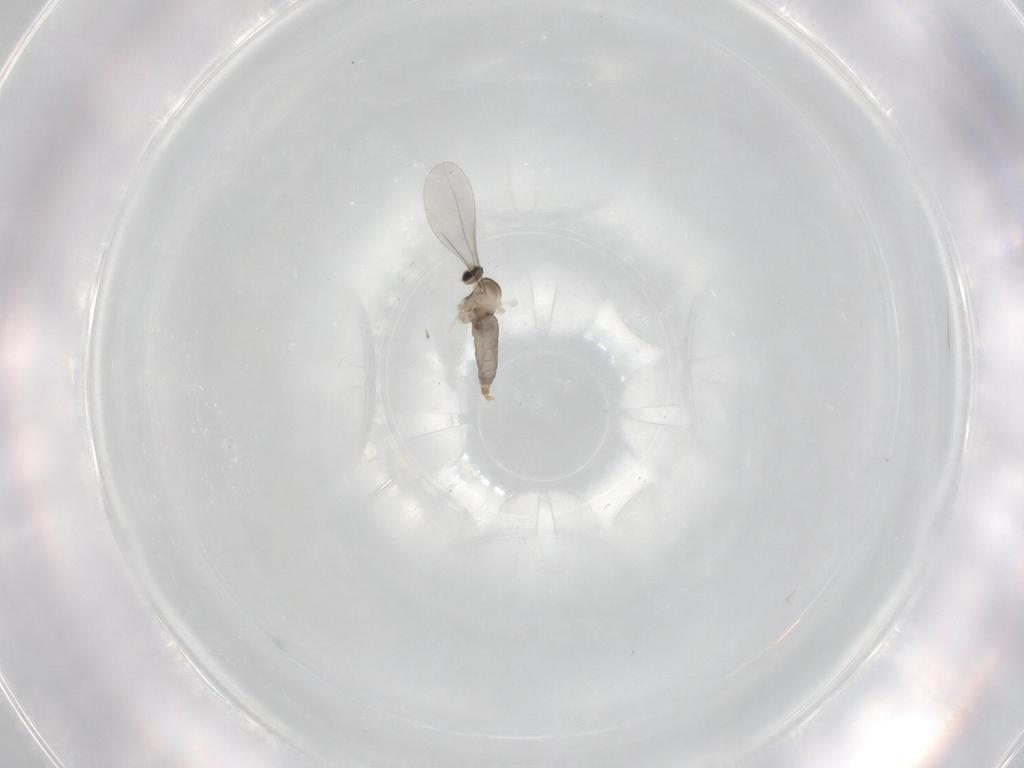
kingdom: Animalia
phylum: Arthropoda
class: Insecta
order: Diptera
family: Cecidomyiidae
